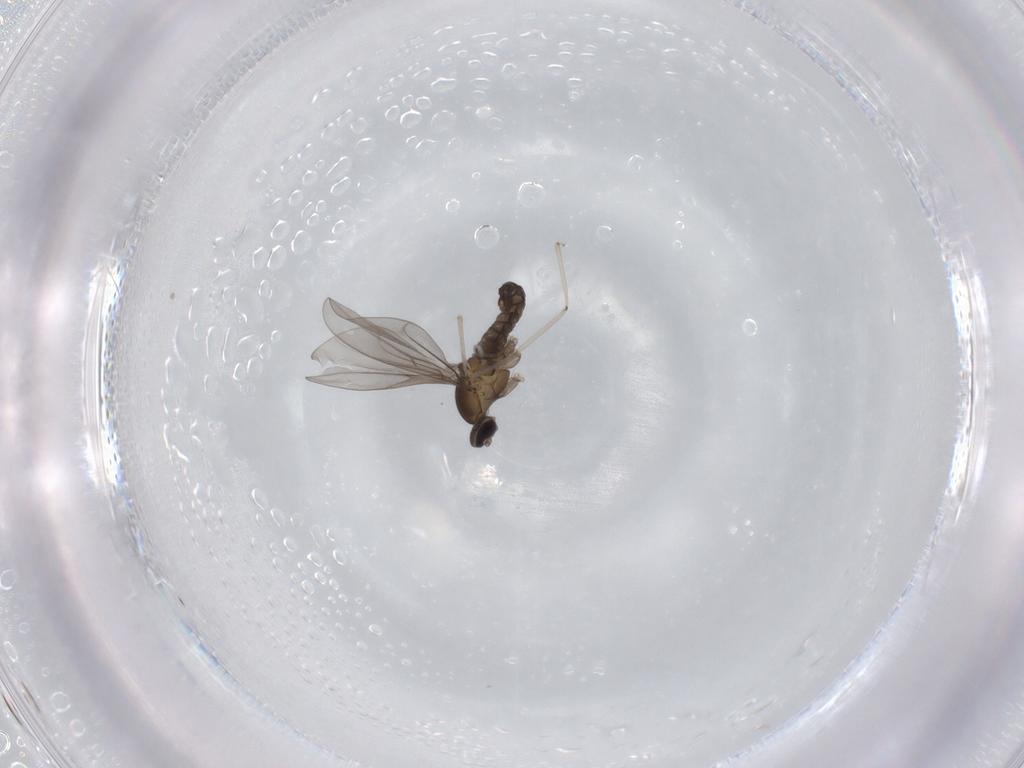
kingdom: Animalia
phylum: Arthropoda
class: Insecta
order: Diptera
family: Cecidomyiidae
